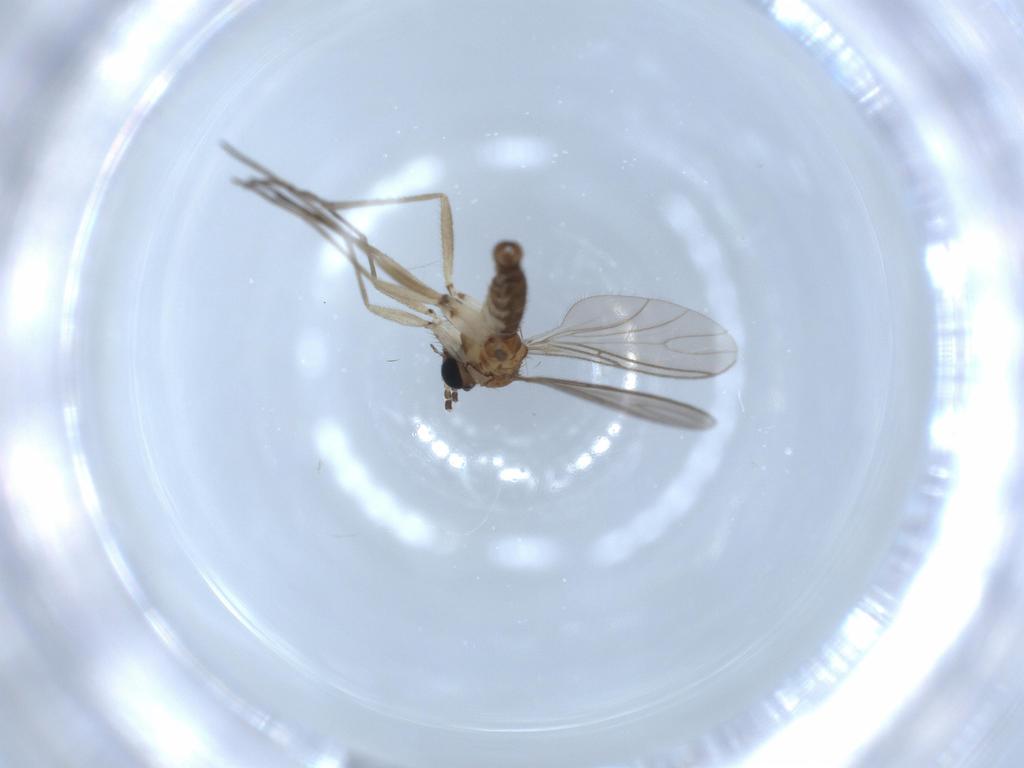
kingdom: Animalia
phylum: Arthropoda
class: Insecta
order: Diptera
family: Sciaridae
